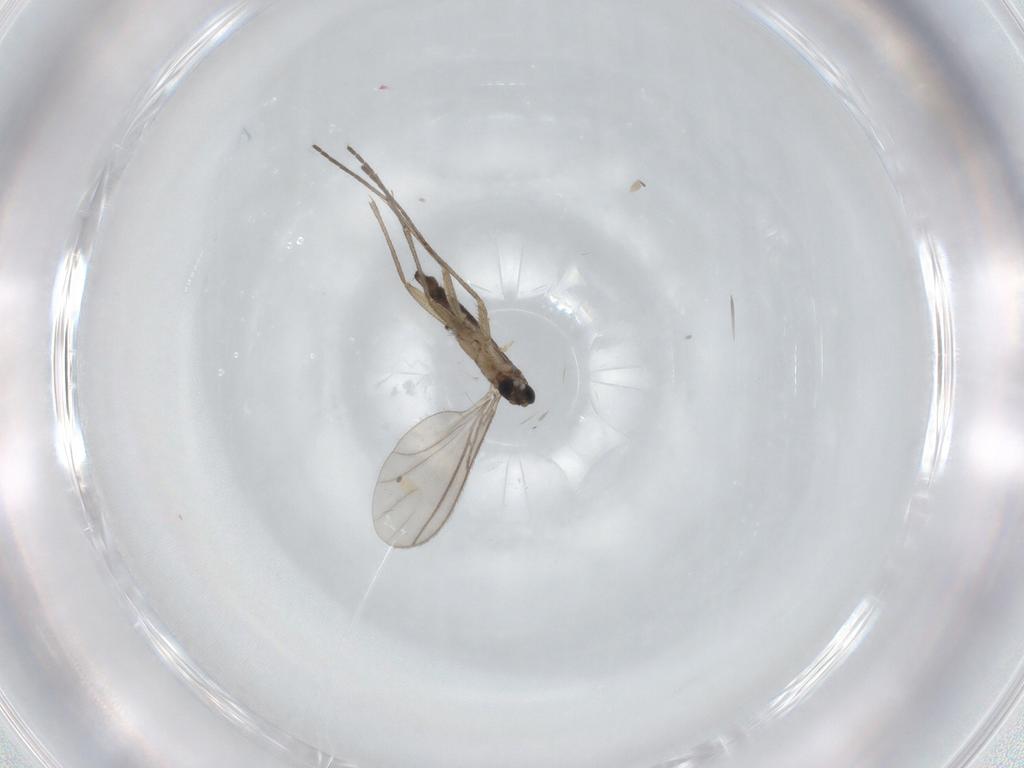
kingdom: Animalia
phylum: Arthropoda
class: Insecta
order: Diptera
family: Sciaridae
